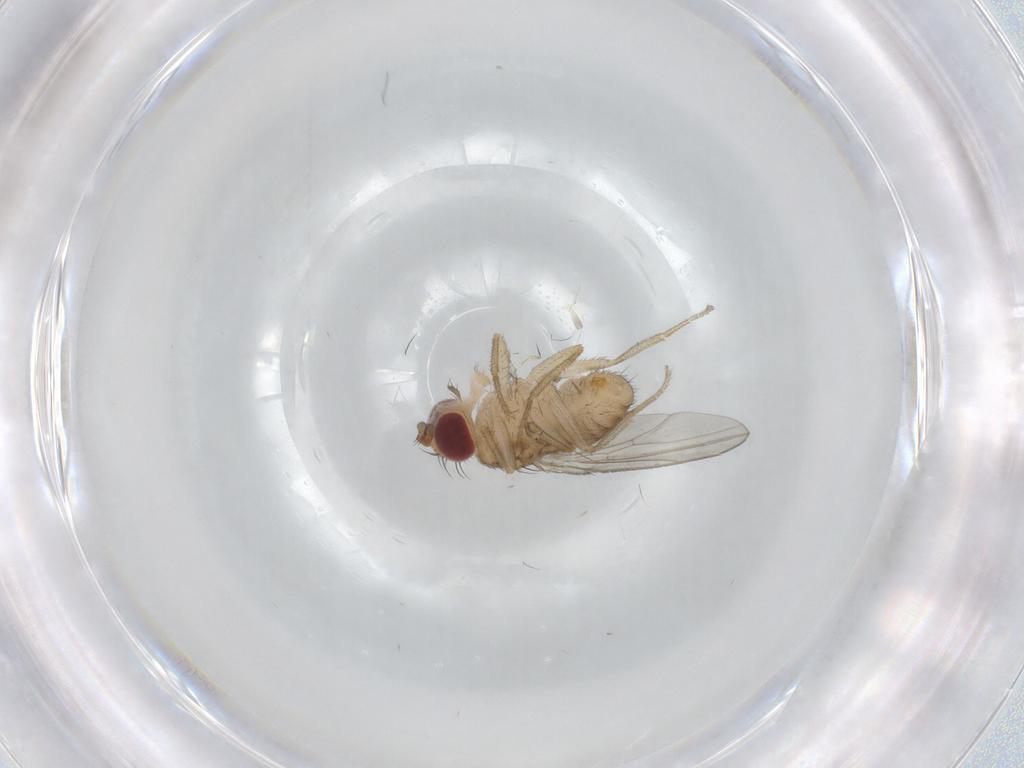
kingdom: Animalia
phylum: Arthropoda
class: Insecta
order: Diptera
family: Drosophilidae
